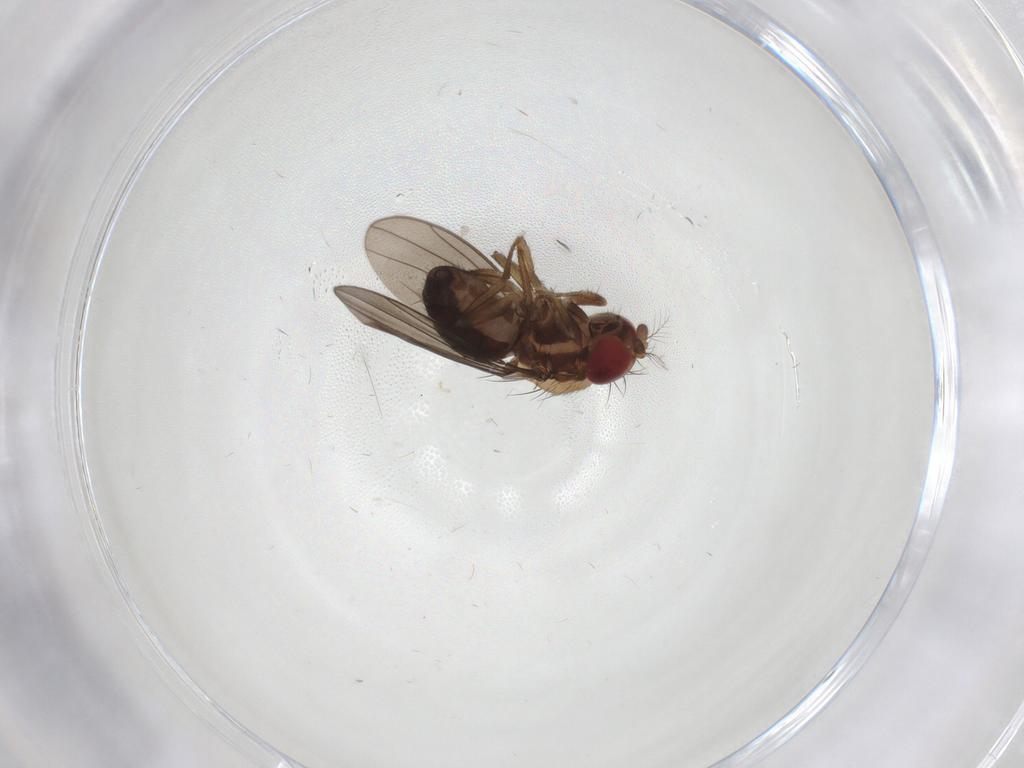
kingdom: Animalia
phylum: Arthropoda
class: Insecta
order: Diptera
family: Drosophilidae
